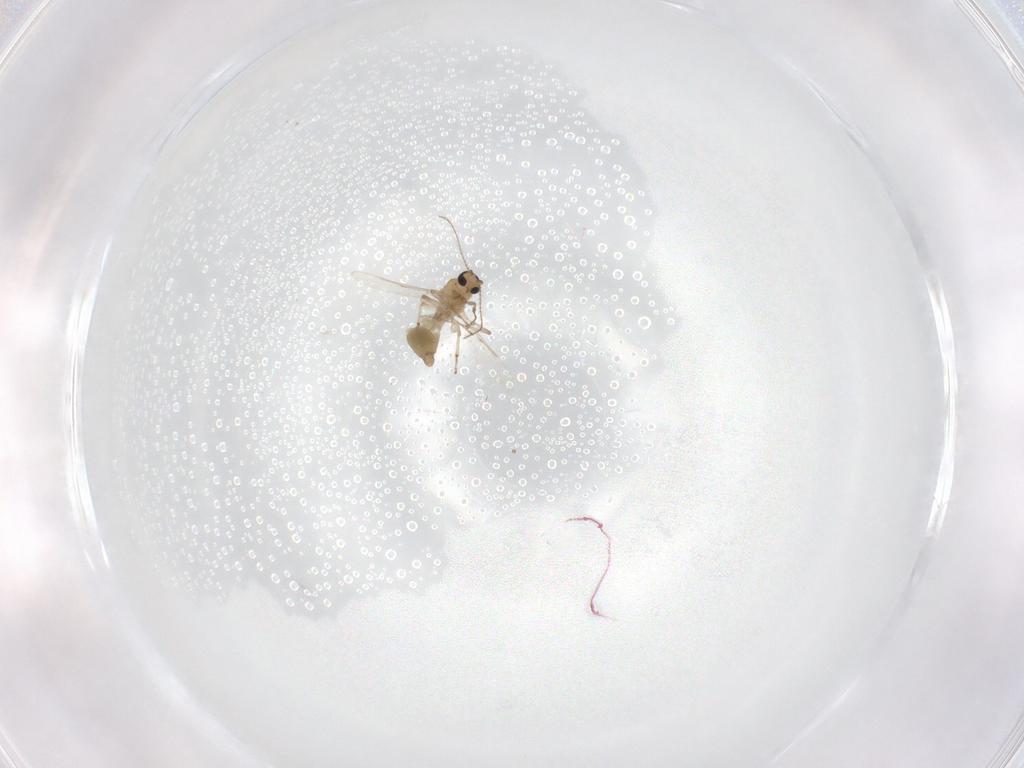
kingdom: Animalia
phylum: Arthropoda
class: Insecta
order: Diptera
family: Ceratopogonidae
